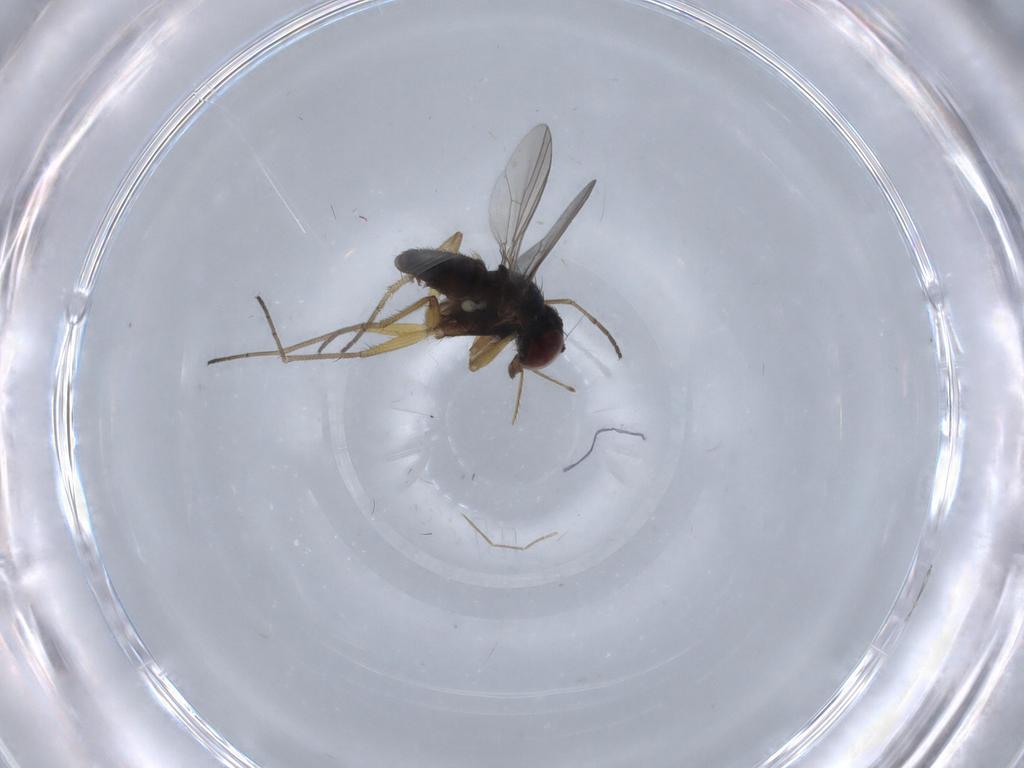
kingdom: Animalia
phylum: Arthropoda
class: Insecta
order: Diptera
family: Dolichopodidae
